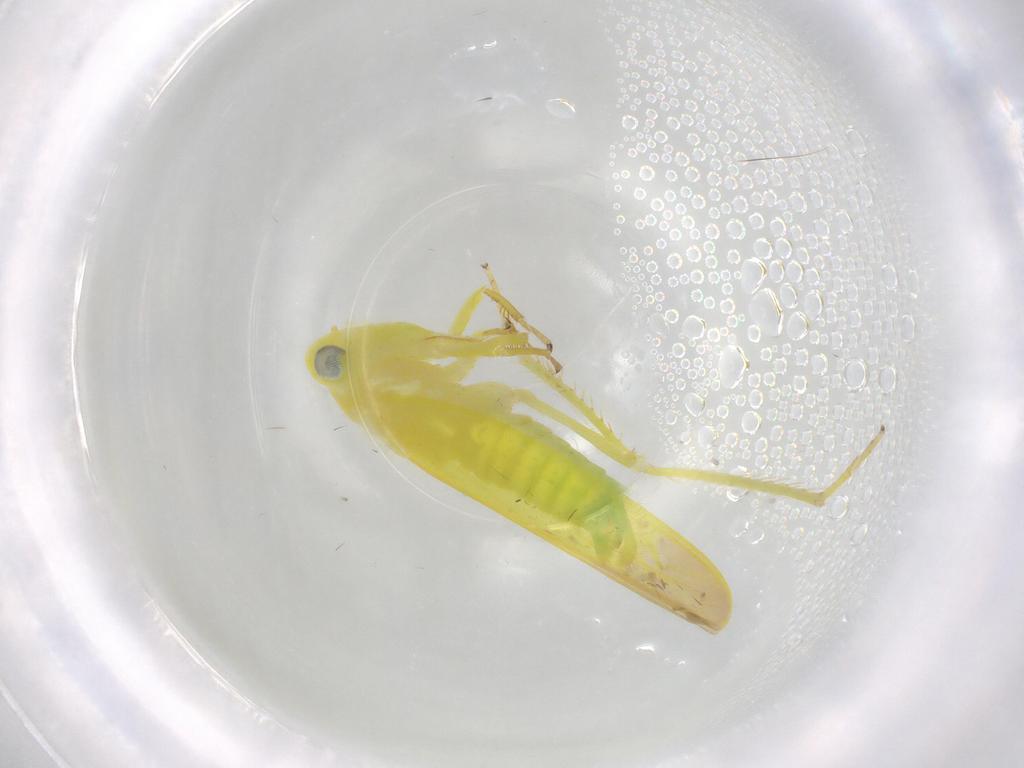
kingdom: Animalia
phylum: Arthropoda
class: Insecta
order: Hemiptera
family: Cicadellidae
